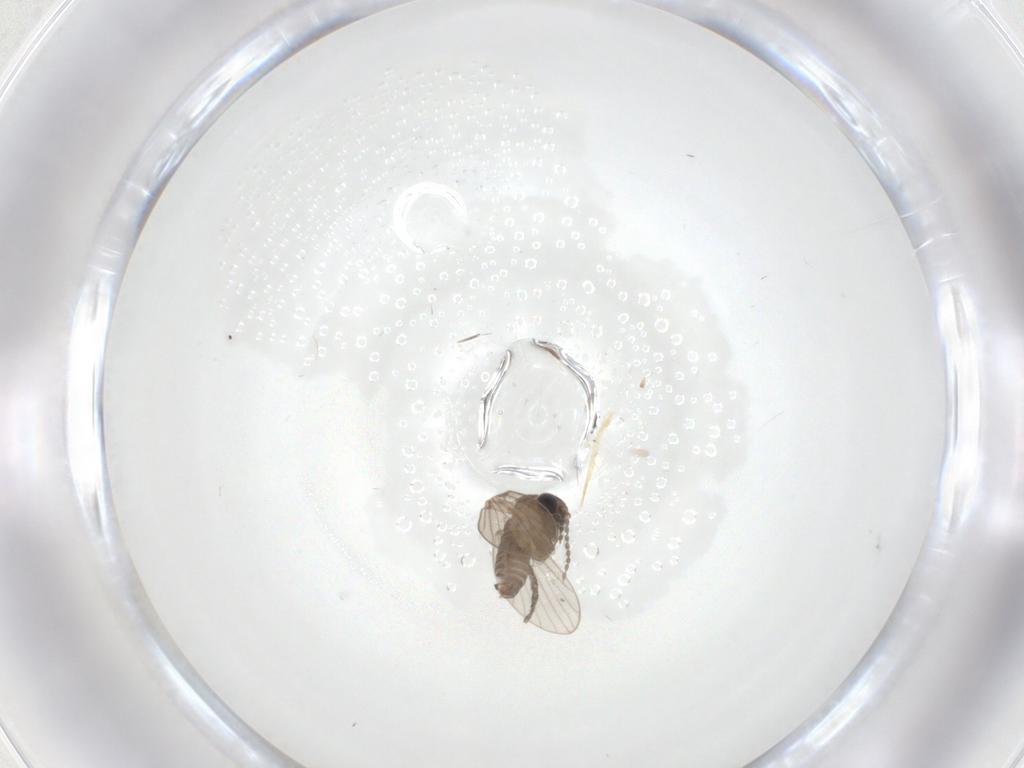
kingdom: Animalia
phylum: Arthropoda
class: Insecta
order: Diptera
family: Psychodidae
